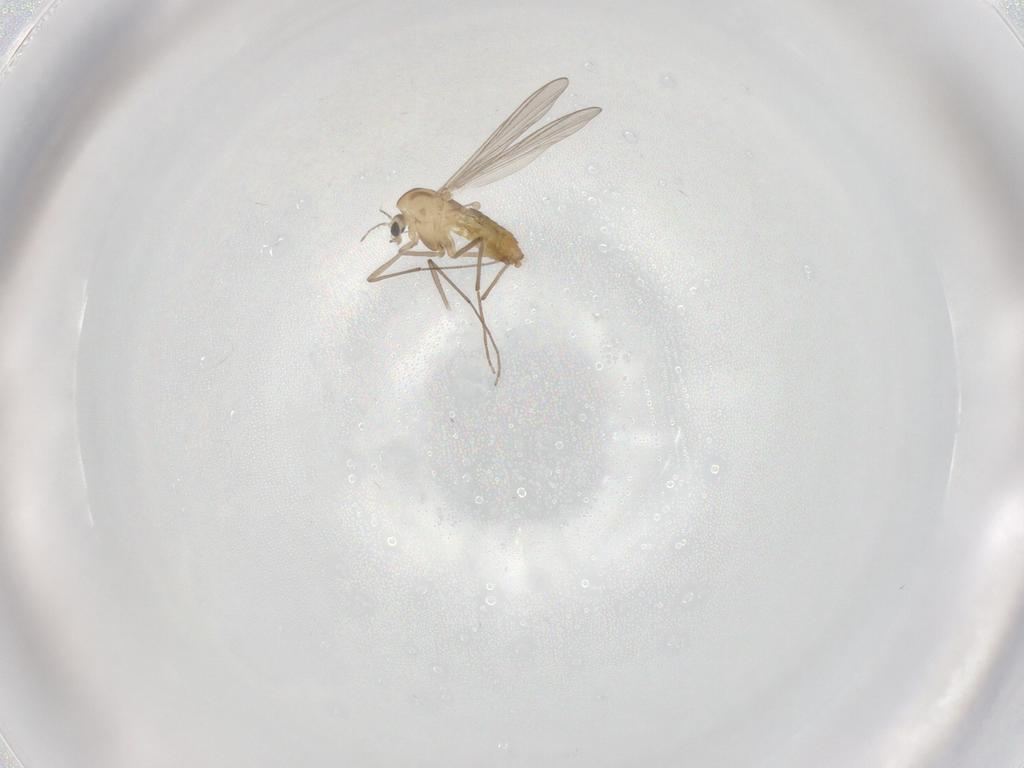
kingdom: Animalia
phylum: Arthropoda
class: Insecta
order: Diptera
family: Chironomidae
